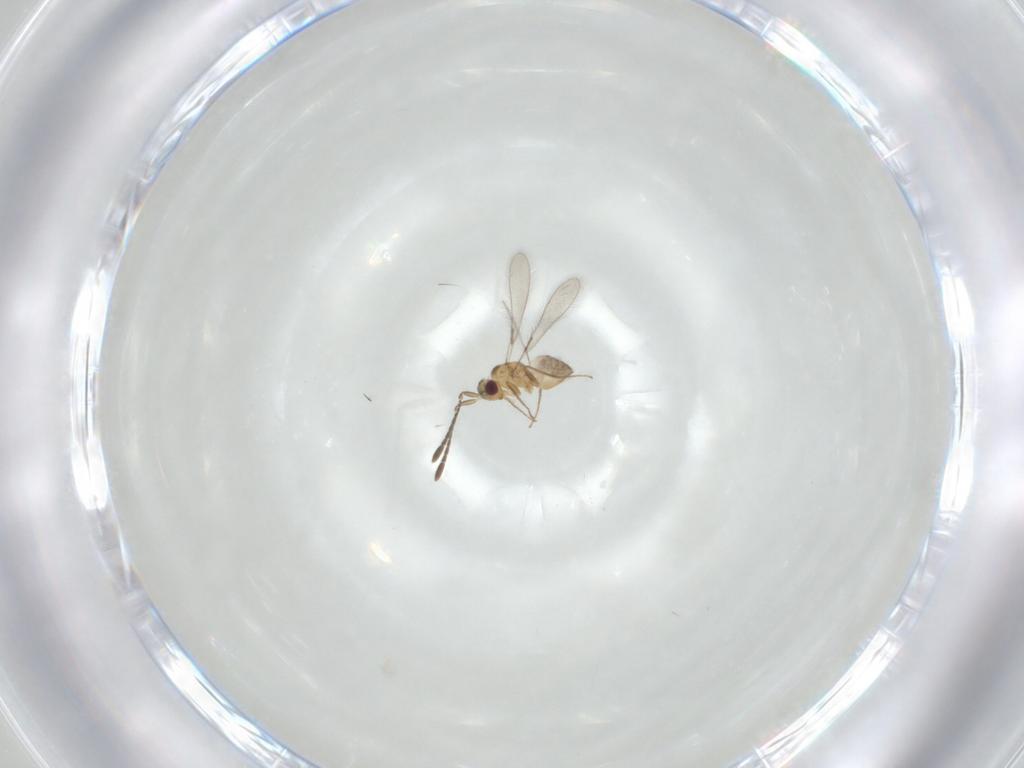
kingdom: Animalia
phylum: Arthropoda
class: Insecta
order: Hymenoptera
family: Mymaridae
